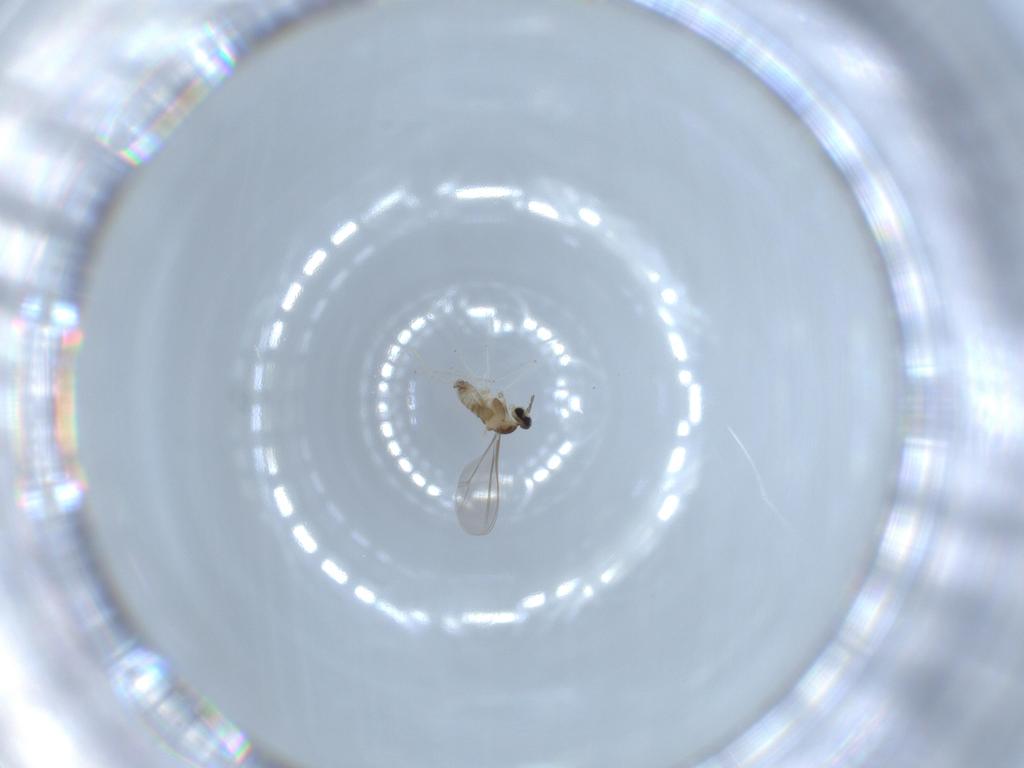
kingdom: Animalia
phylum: Arthropoda
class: Insecta
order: Diptera
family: Cecidomyiidae
